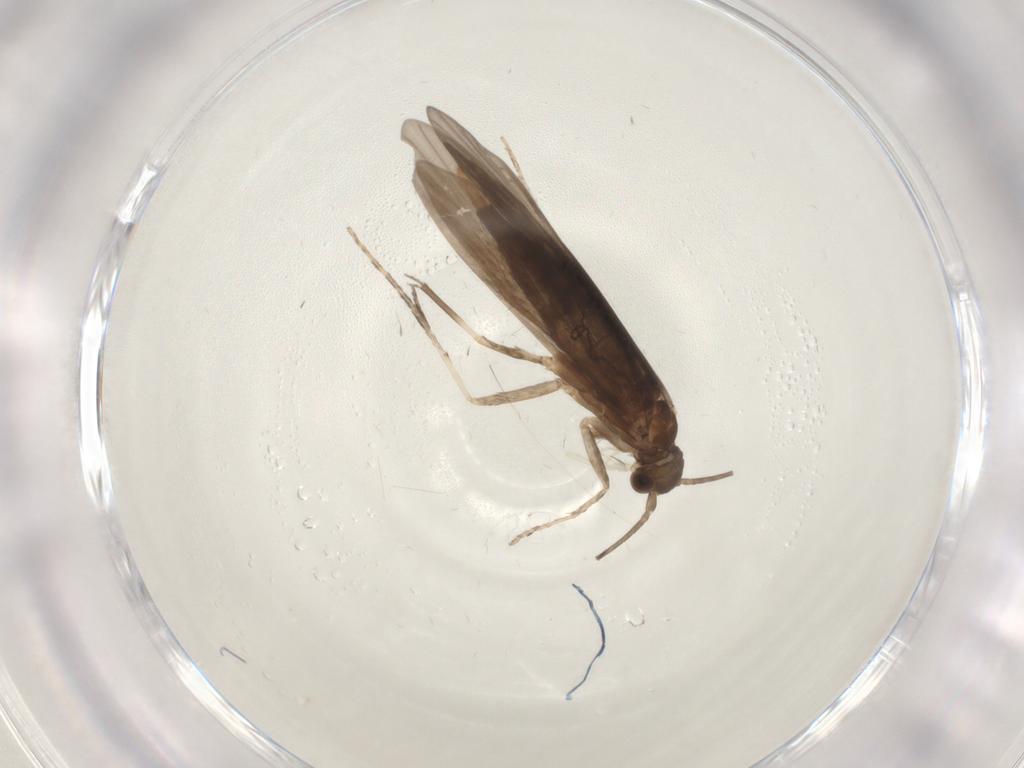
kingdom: Animalia
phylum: Arthropoda
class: Insecta
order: Trichoptera
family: Xiphocentronidae
